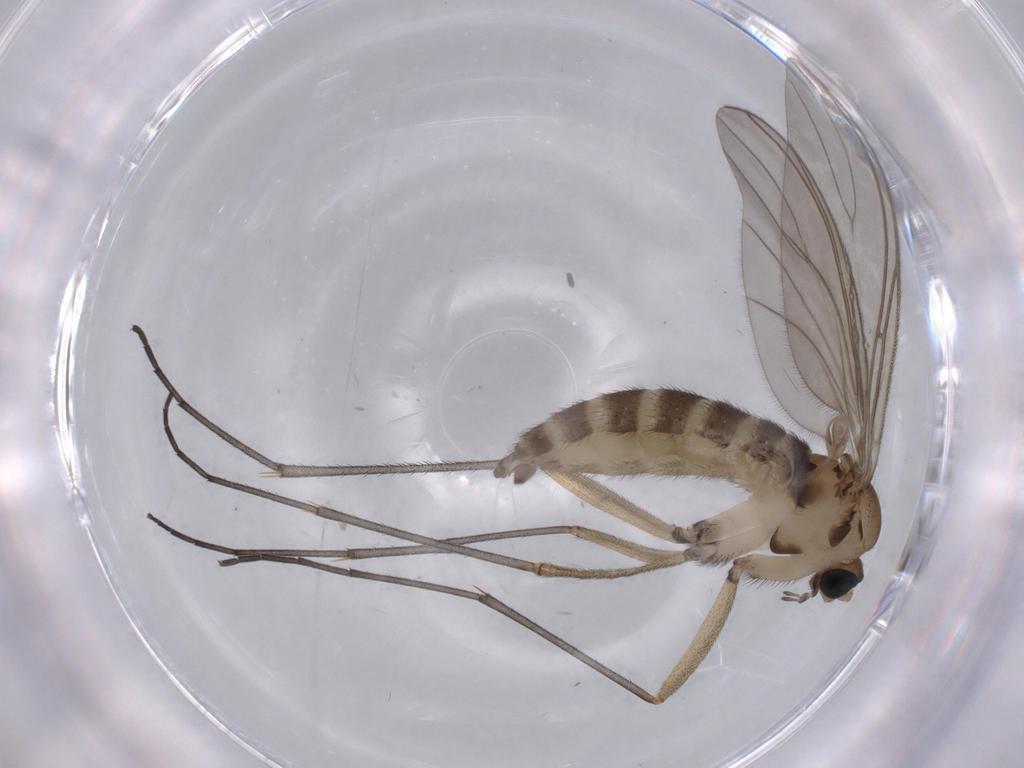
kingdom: Animalia
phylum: Arthropoda
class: Insecta
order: Diptera
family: Sciaridae
